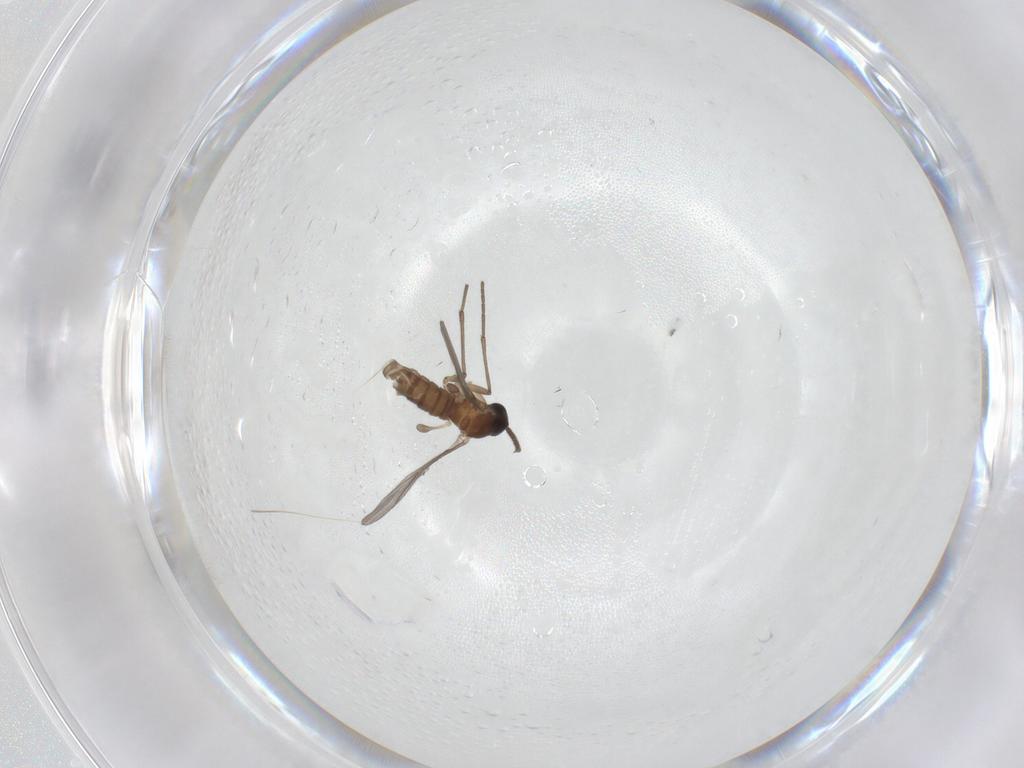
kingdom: Animalia
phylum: Arthropoda
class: Insecta
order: Diptera
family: Sciaridae
